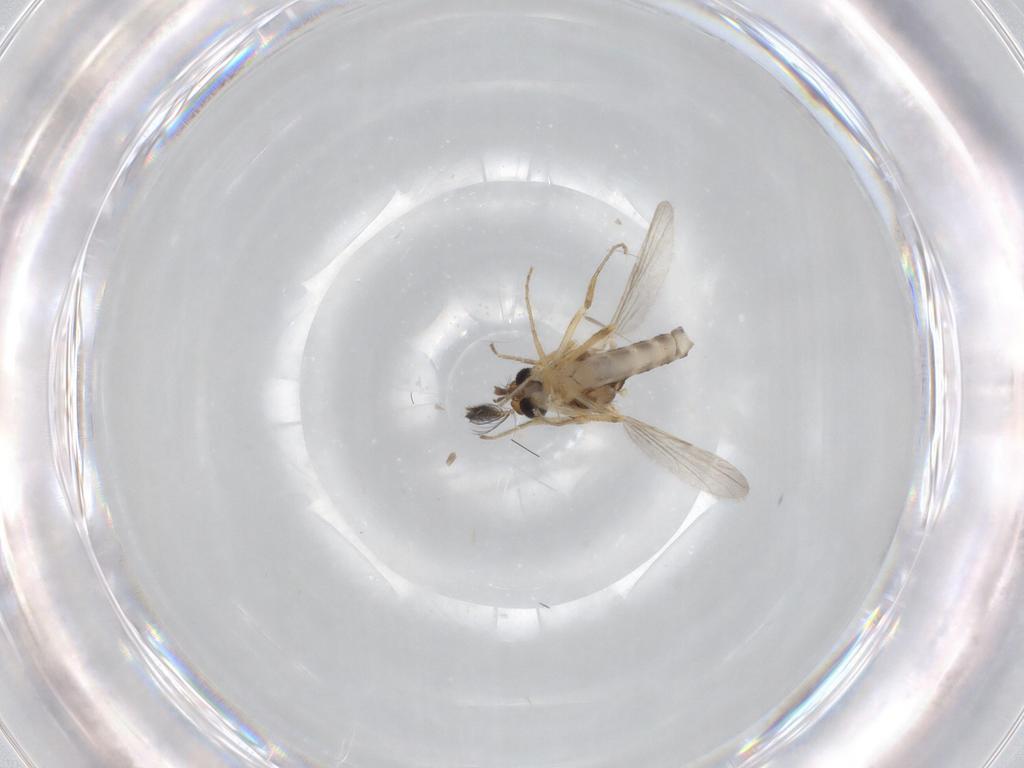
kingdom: Animalia
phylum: Arthropoda
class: Insecta
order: Diptera
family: Ceratopogonidae
